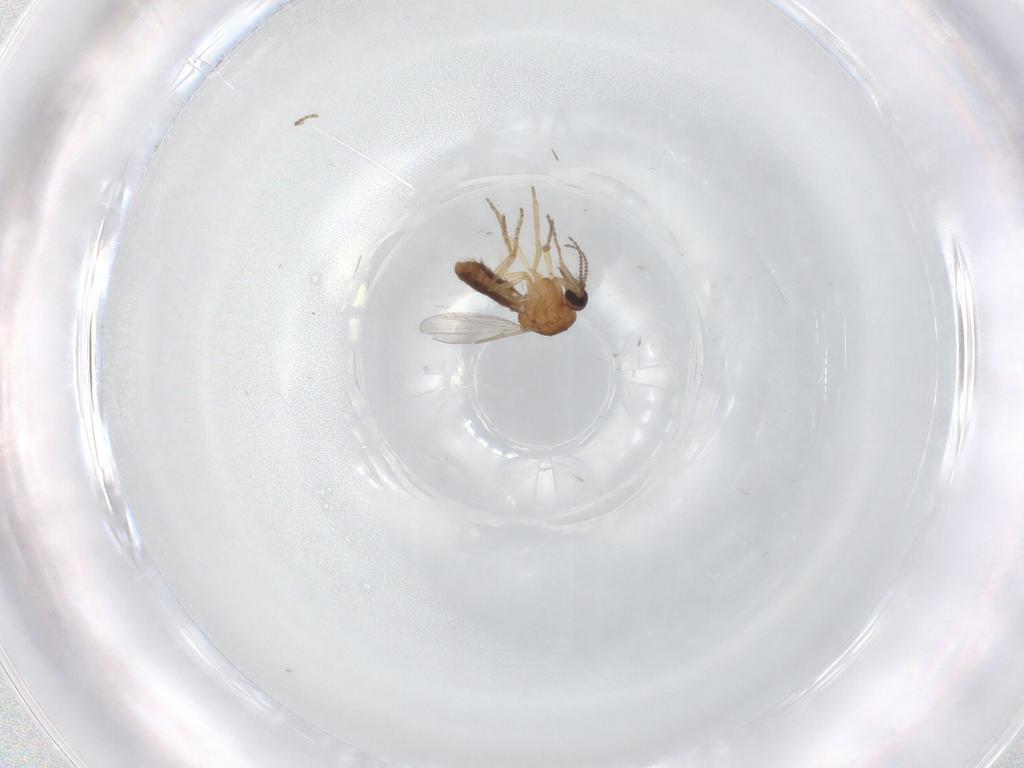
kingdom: Animalia
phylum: Arthropoda
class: Insecta
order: Diptera
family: Ceratopogonidae
